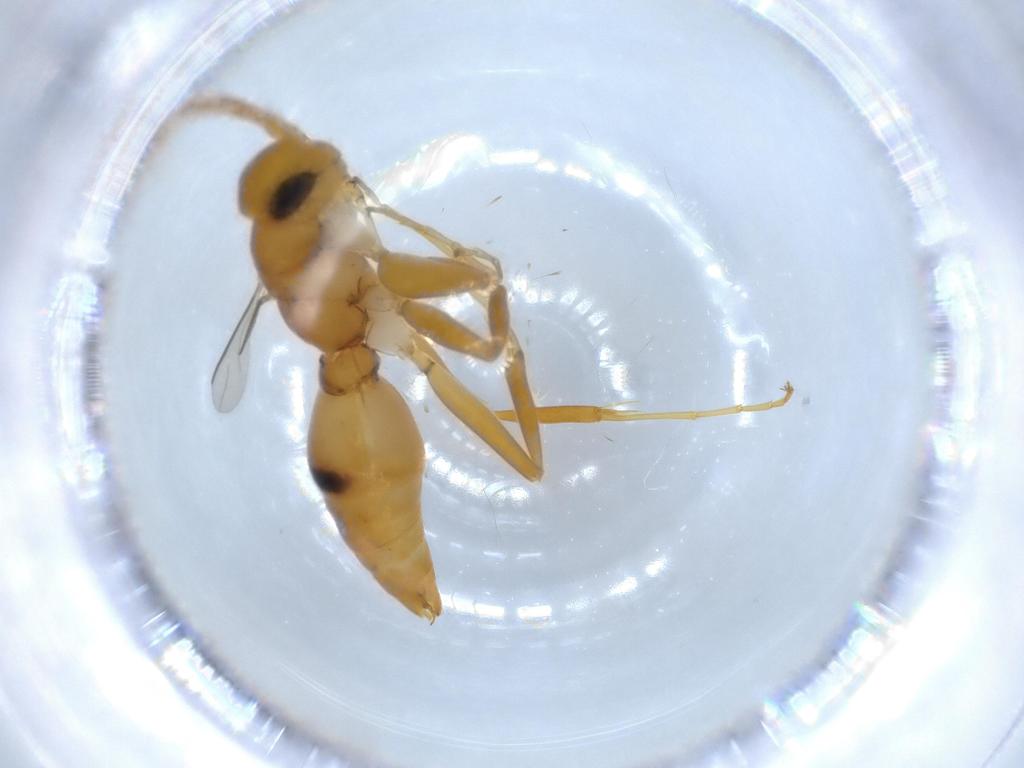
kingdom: Animalia
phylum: Arthropoda
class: Insecta
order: Hymenoptera
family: Rhopalosomatidae
